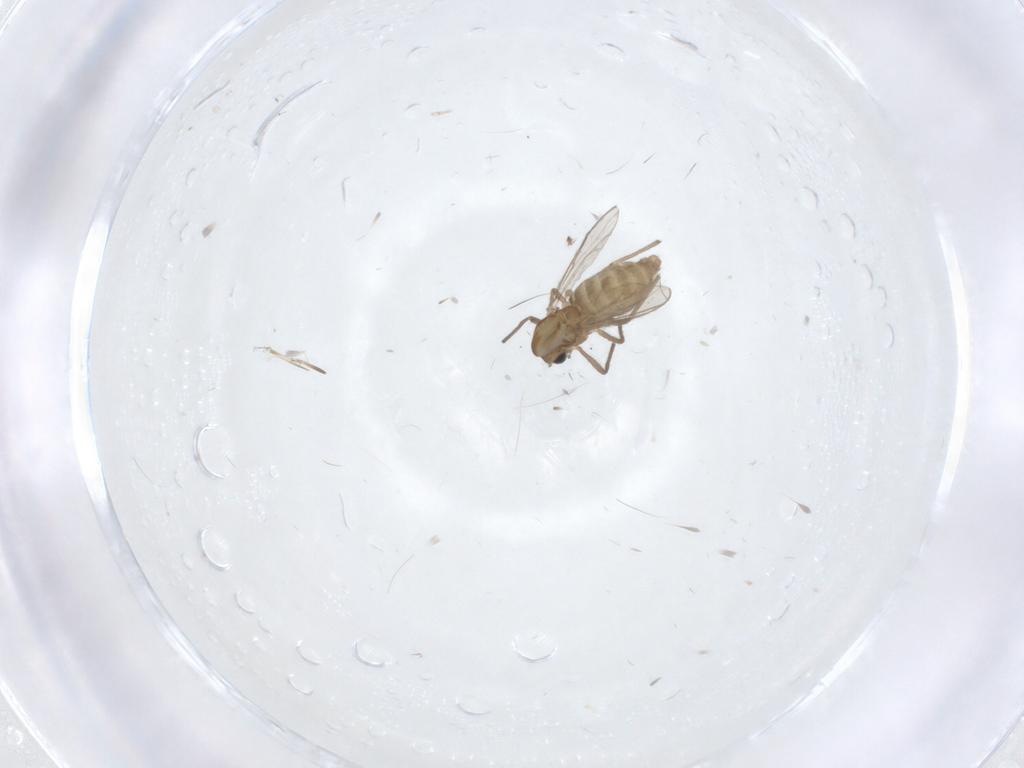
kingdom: Animalia
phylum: Arthropoda
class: Insecta
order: Diptera
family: Chironomidae
